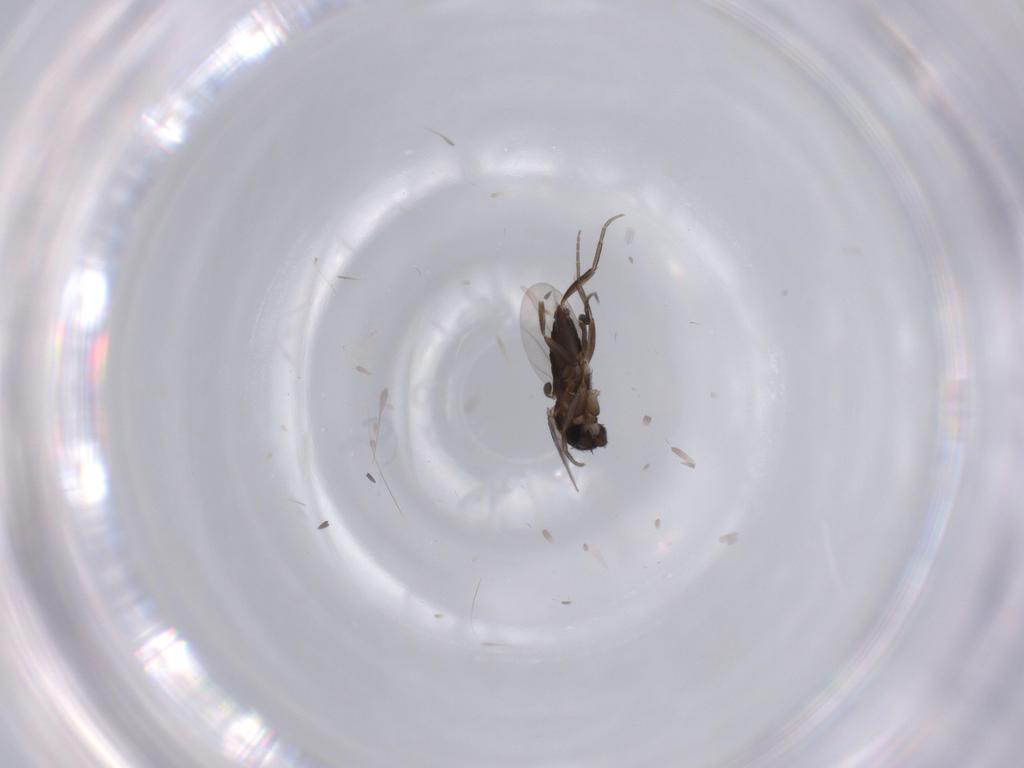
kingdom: Animalia
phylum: Arthropoda
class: Insecta
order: Diptera
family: Phoridae
